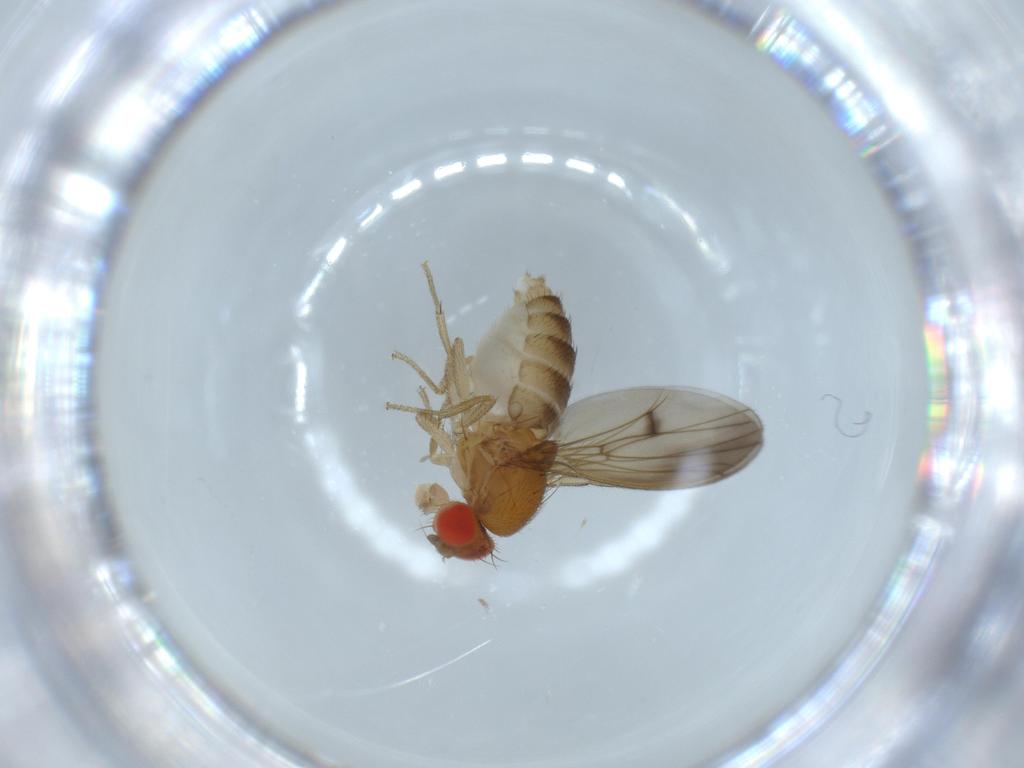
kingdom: Animalia
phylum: Arthropoda
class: Insecta
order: Diptera
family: Drosophilidae
